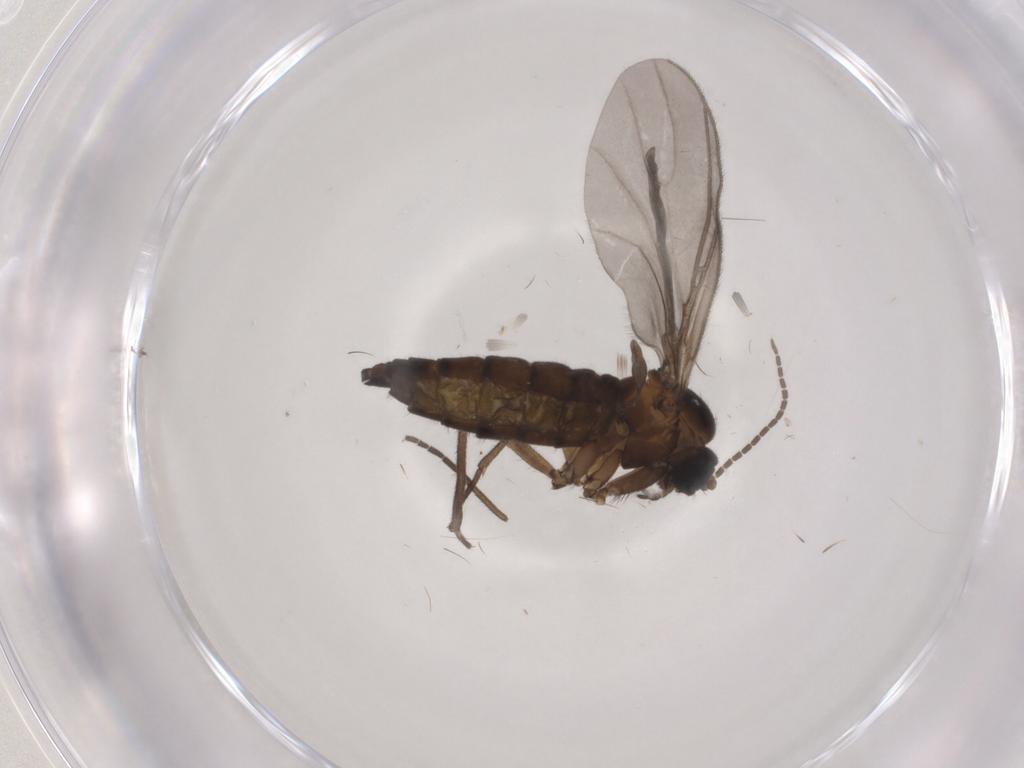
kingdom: Animalia
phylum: Arthropoda
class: Insecta
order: Diptera
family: Sciaridae
